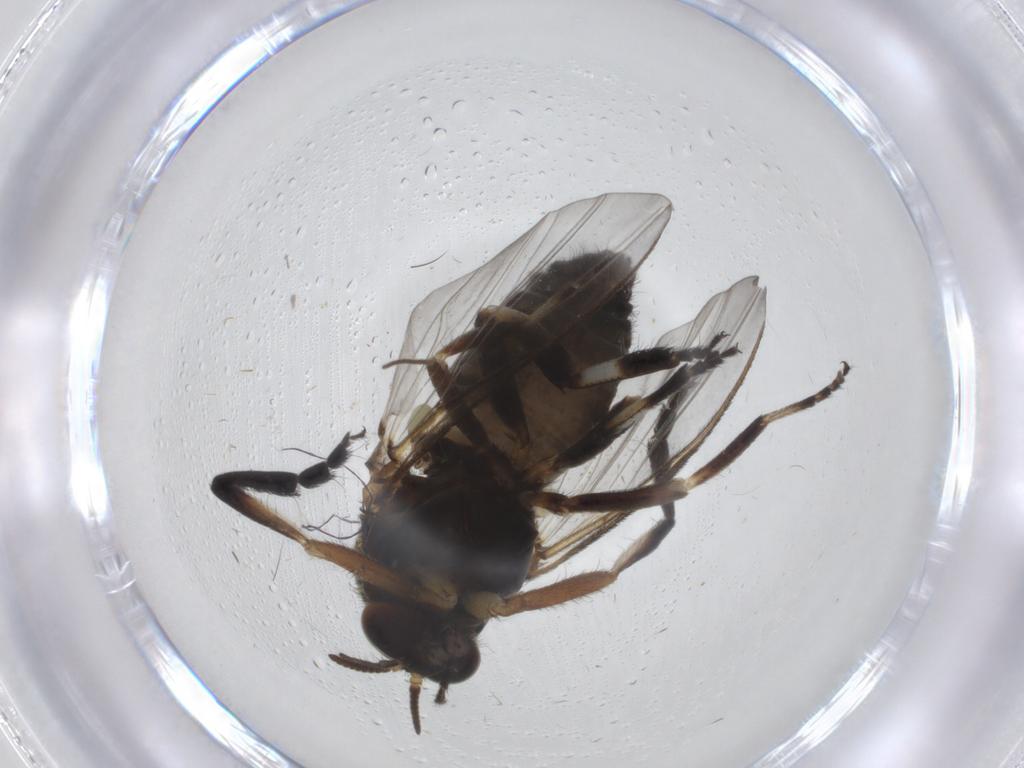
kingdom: Animalia
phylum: Arthropoda
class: Insecta
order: Diptera
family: Sciaridae
